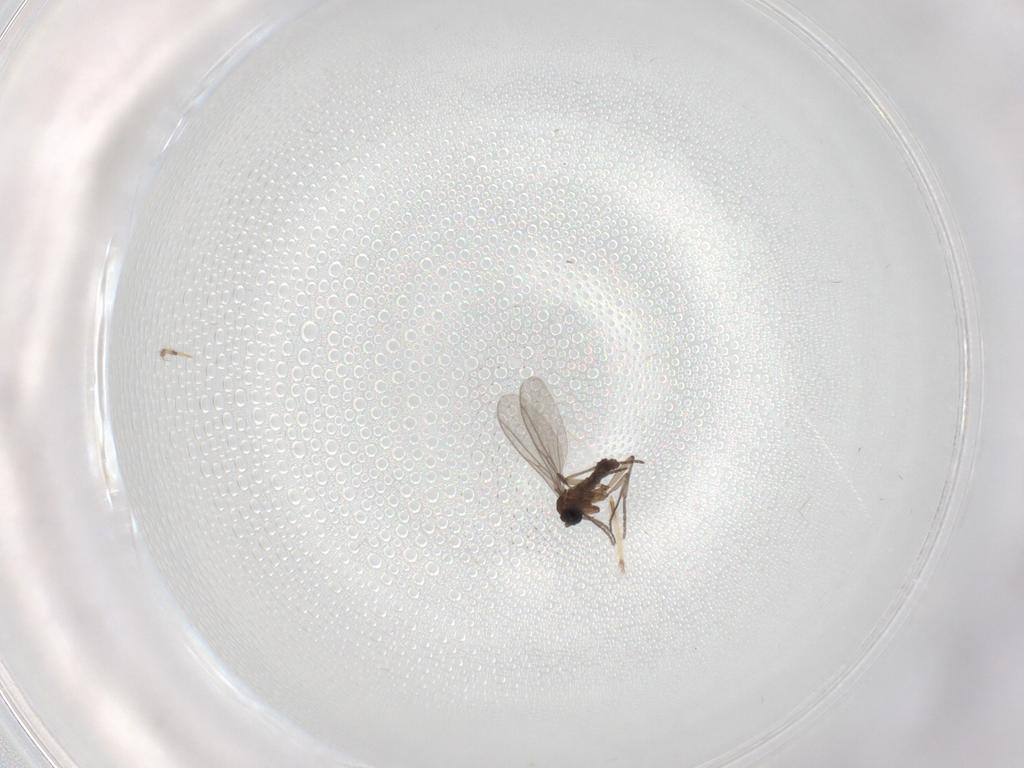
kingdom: Animalia
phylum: Arthropoda
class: Insecta
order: Diptera
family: Sciaridae
